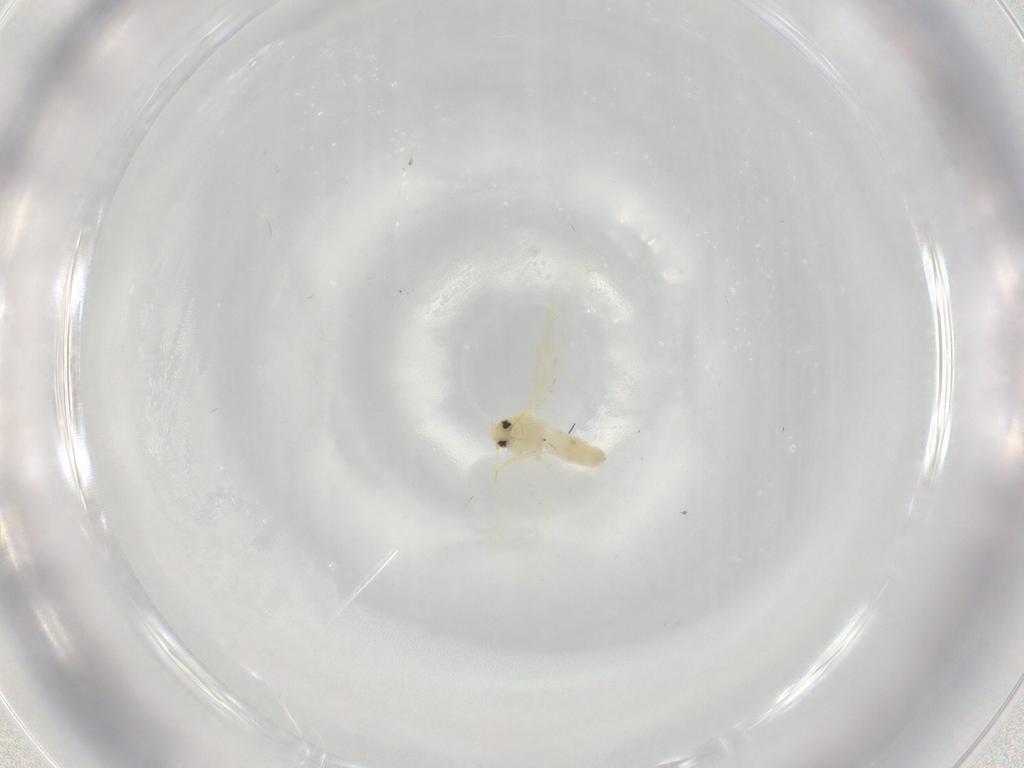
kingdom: Animalia
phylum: Arthropoda
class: Insecta
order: Hemiptera
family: Aleyrodidae
